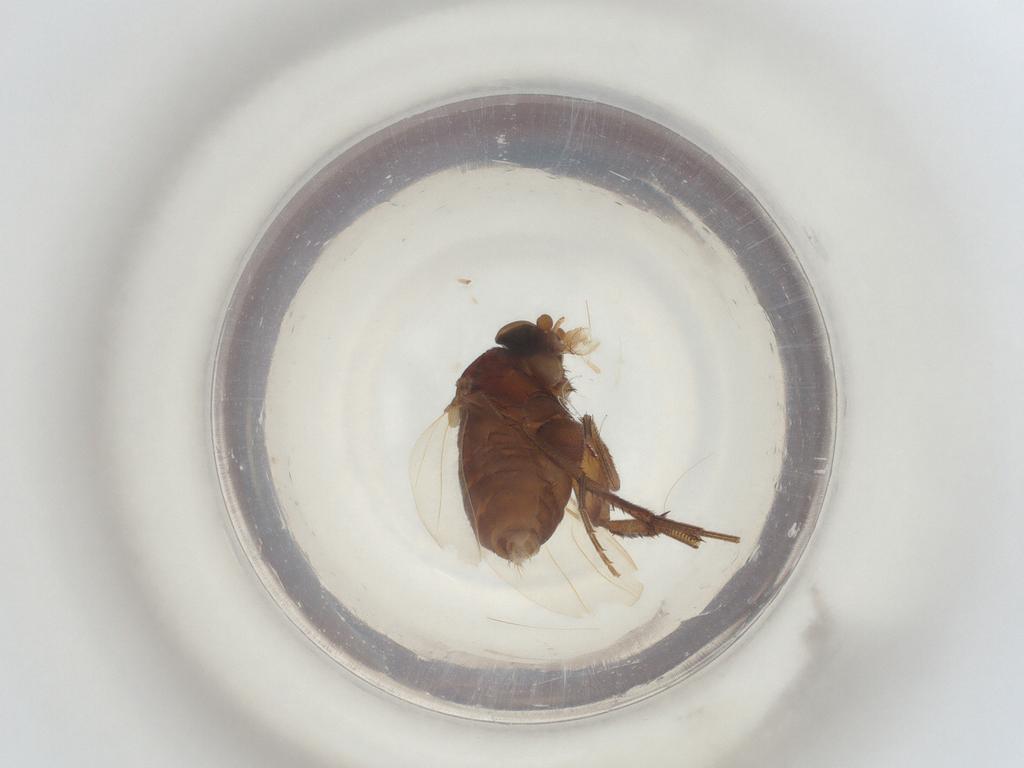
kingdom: Animalia
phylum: Arthropoda
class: Insecta
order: Diptera
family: Phoridae
